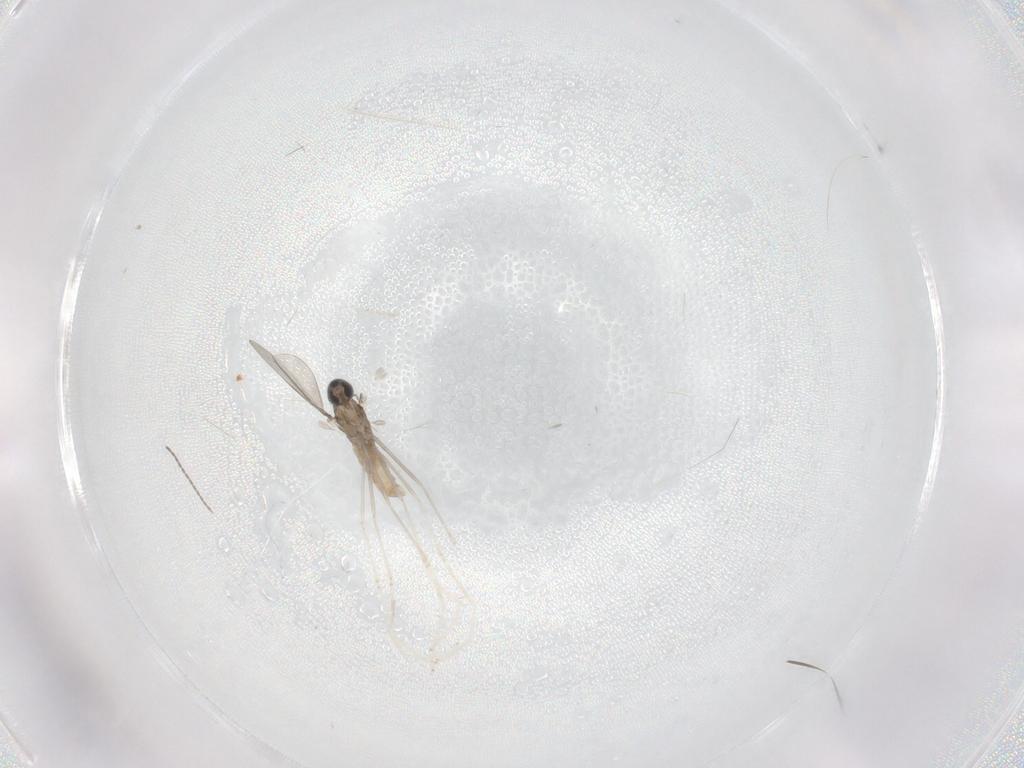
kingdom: Animalia
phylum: Arthropoda
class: Insecta
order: Diptera
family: Cecidomyiidae
